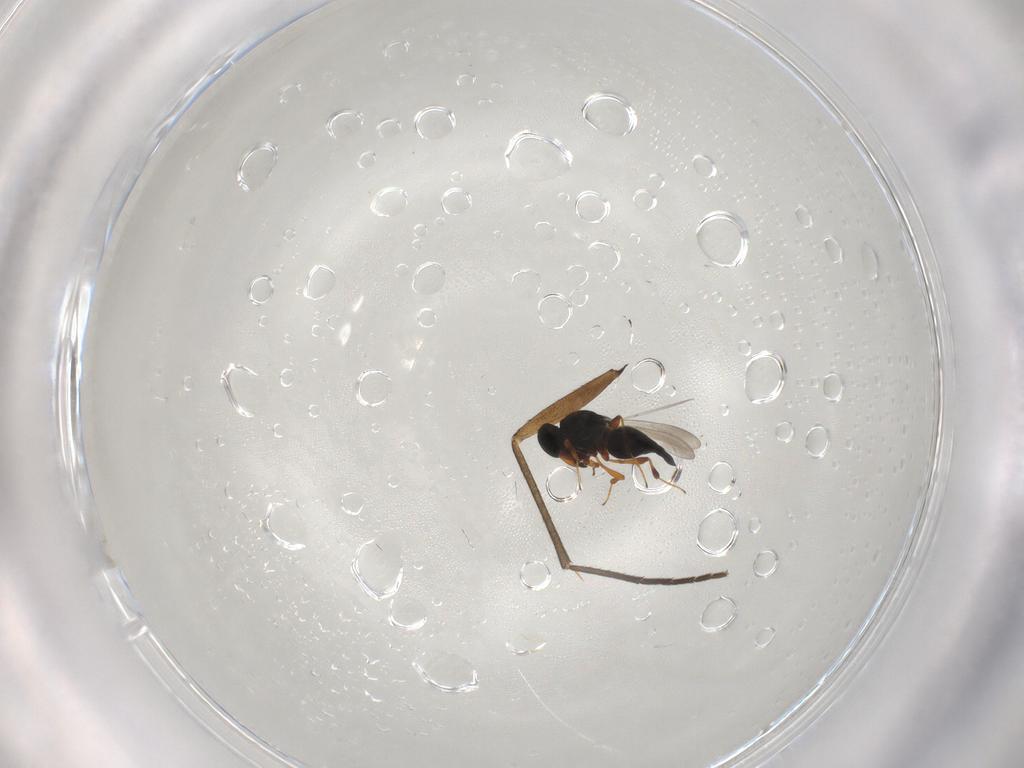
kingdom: Animalia
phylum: Arthropoda
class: Insecta
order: Hymenoptera
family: Platygastridae
